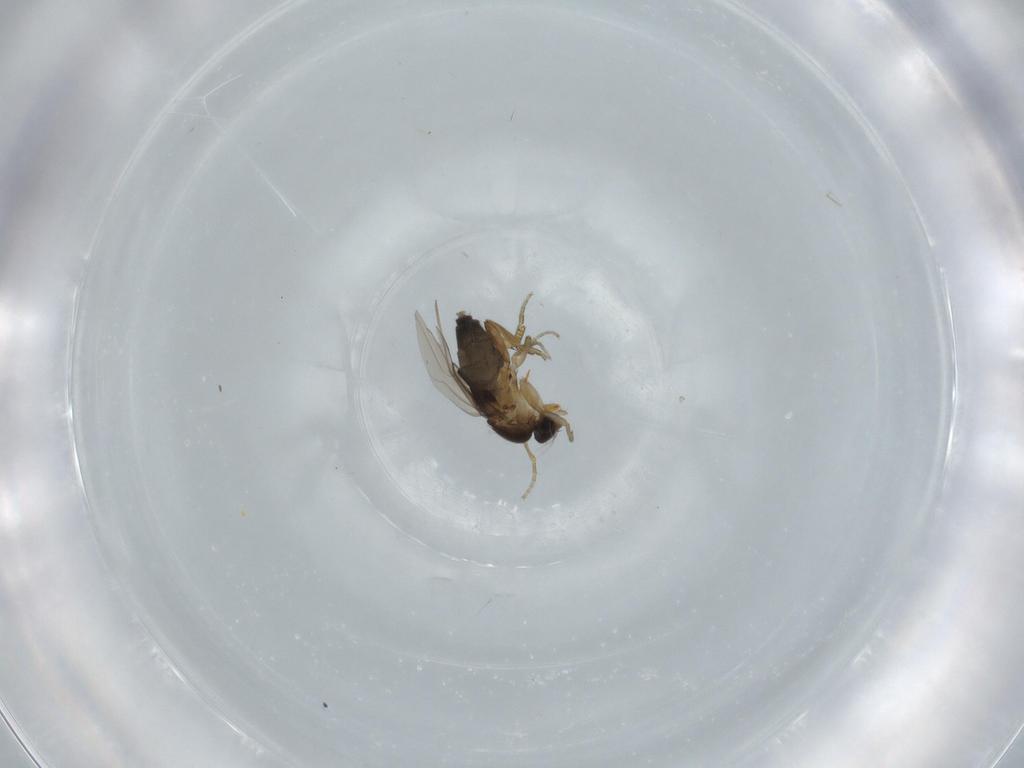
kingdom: Animalia
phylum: Arthropoda
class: Insecta
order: Diptera
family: Phoridae
